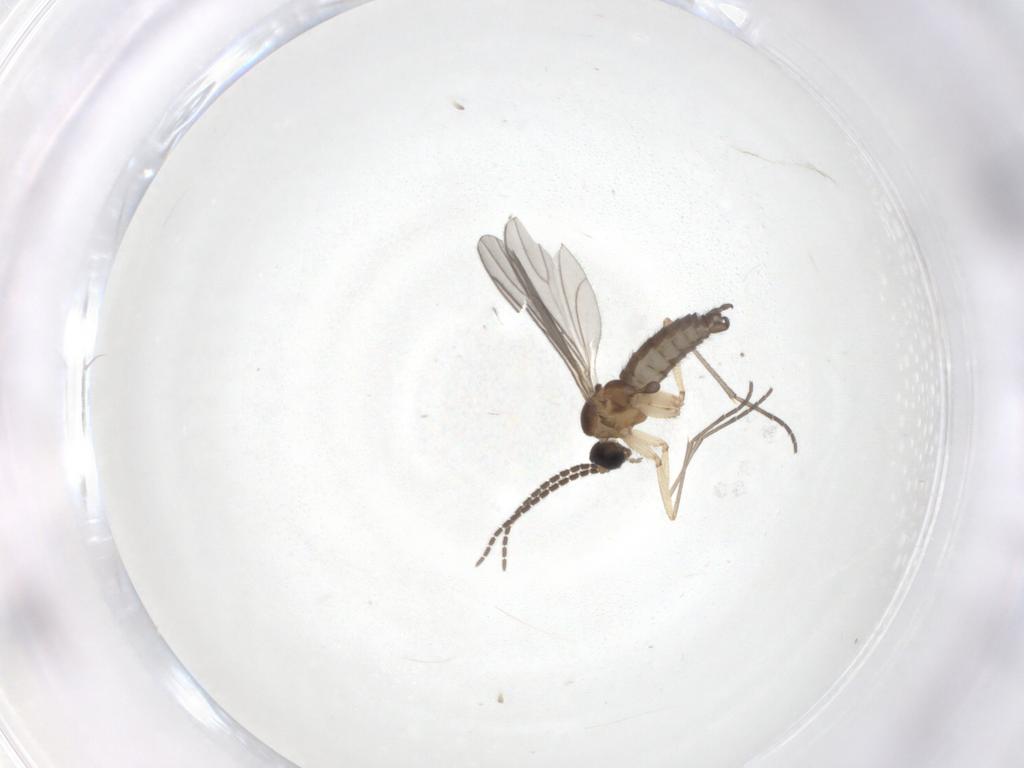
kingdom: Animalia
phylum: Arthropoda
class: Insecta
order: Diptera
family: Sciaridae
